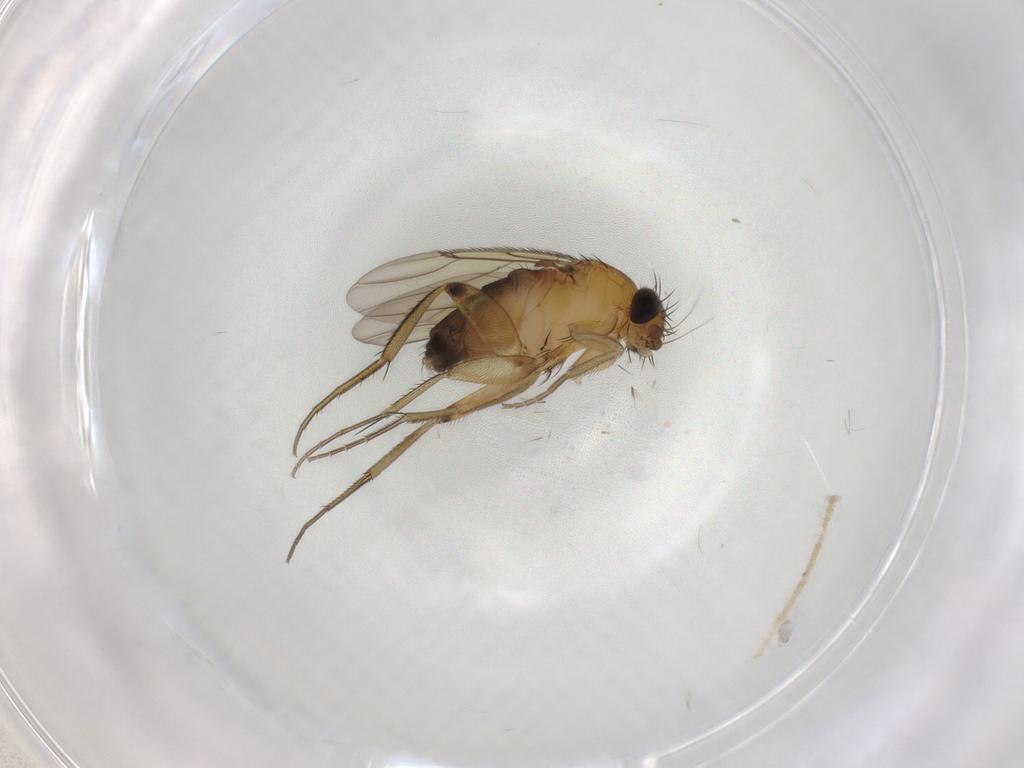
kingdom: Animalia
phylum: Arthropoda
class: Insecta
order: Diptera
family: Phoridae
